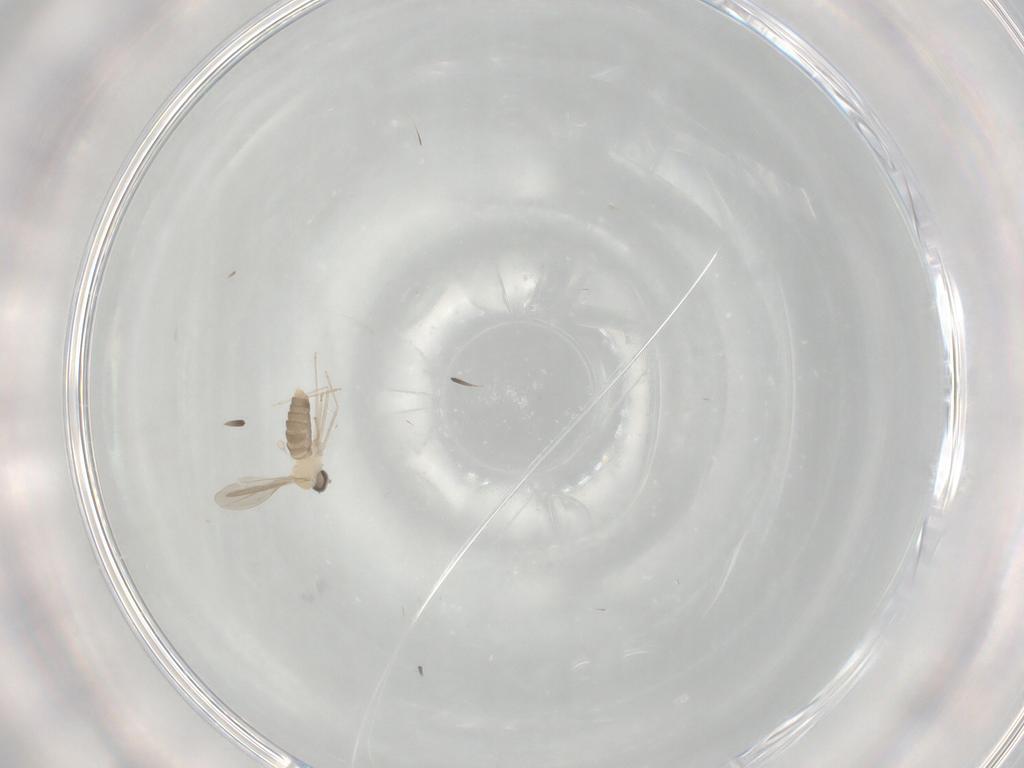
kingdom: Animalia
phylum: Arthropoda
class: Insecta
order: Diptera
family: Cecidomyiidae
